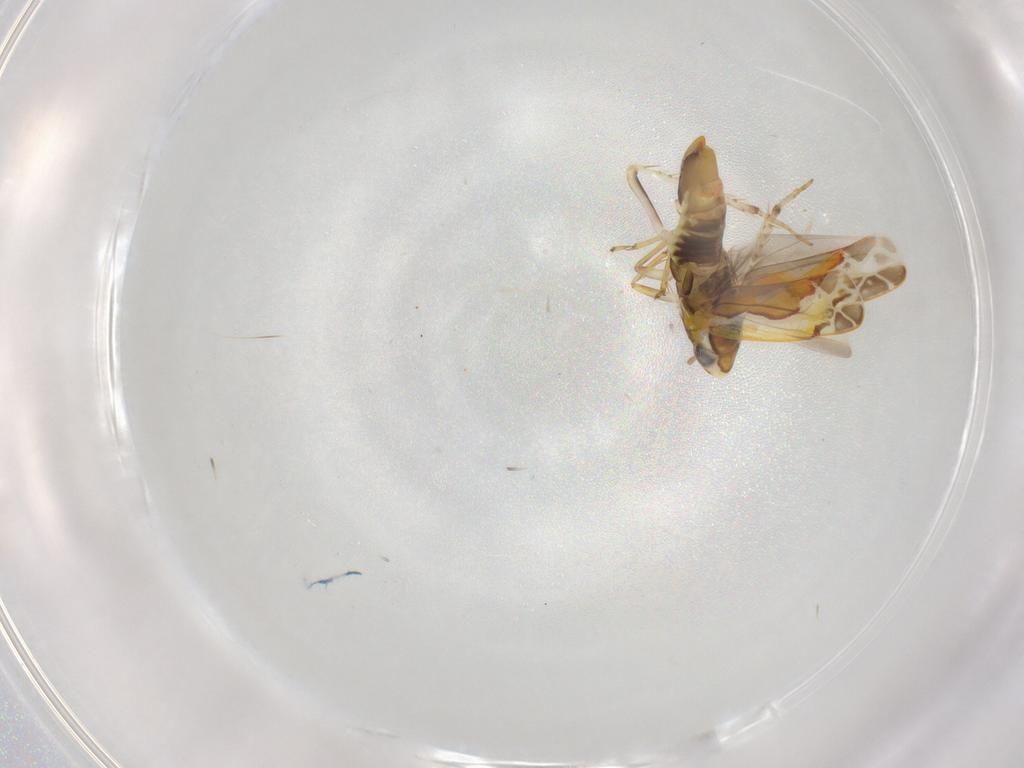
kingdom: Animalia
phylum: Arthropoda
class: Insecta
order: Hemiptera
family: Cicadellidae
